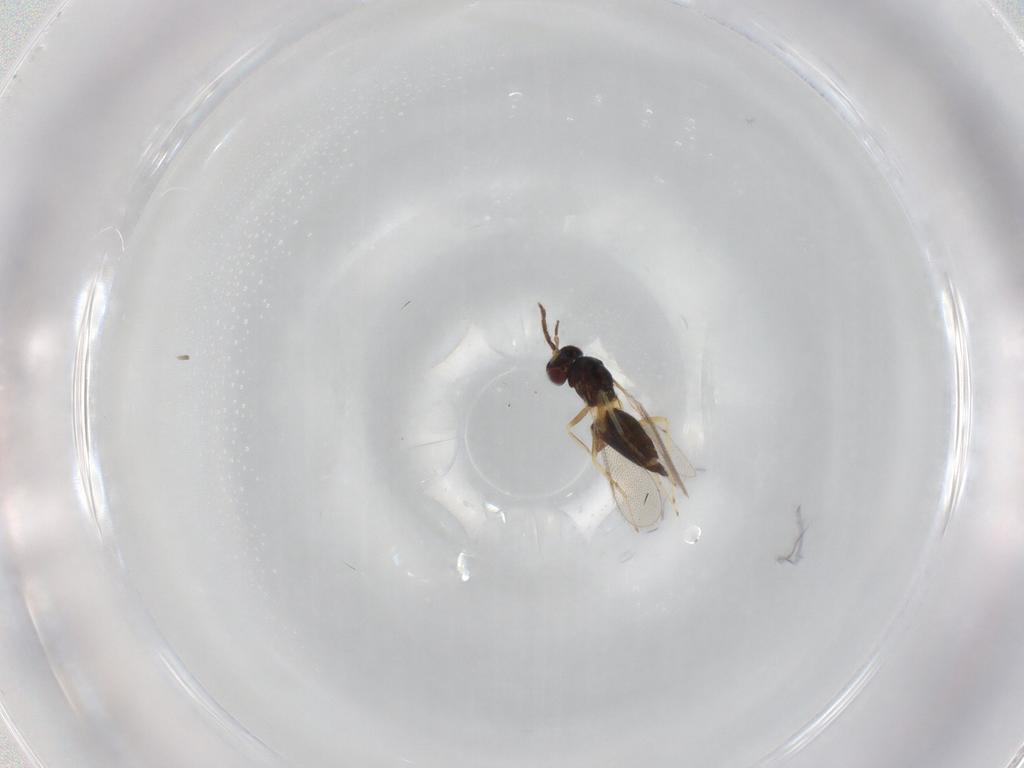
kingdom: Animalia
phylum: Arthropoda
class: Insecta
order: Hymenoptera
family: Eulophidae
